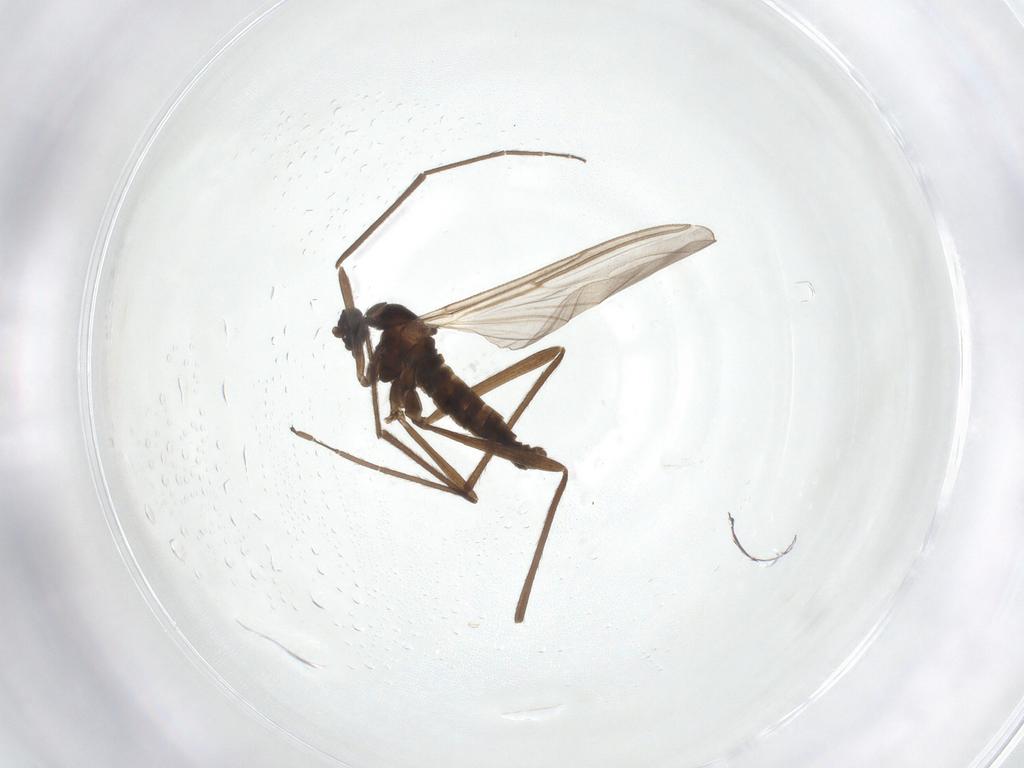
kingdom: Animalia
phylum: Arthropoda
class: Insecta
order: Diptera
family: Cecidomyiidae
